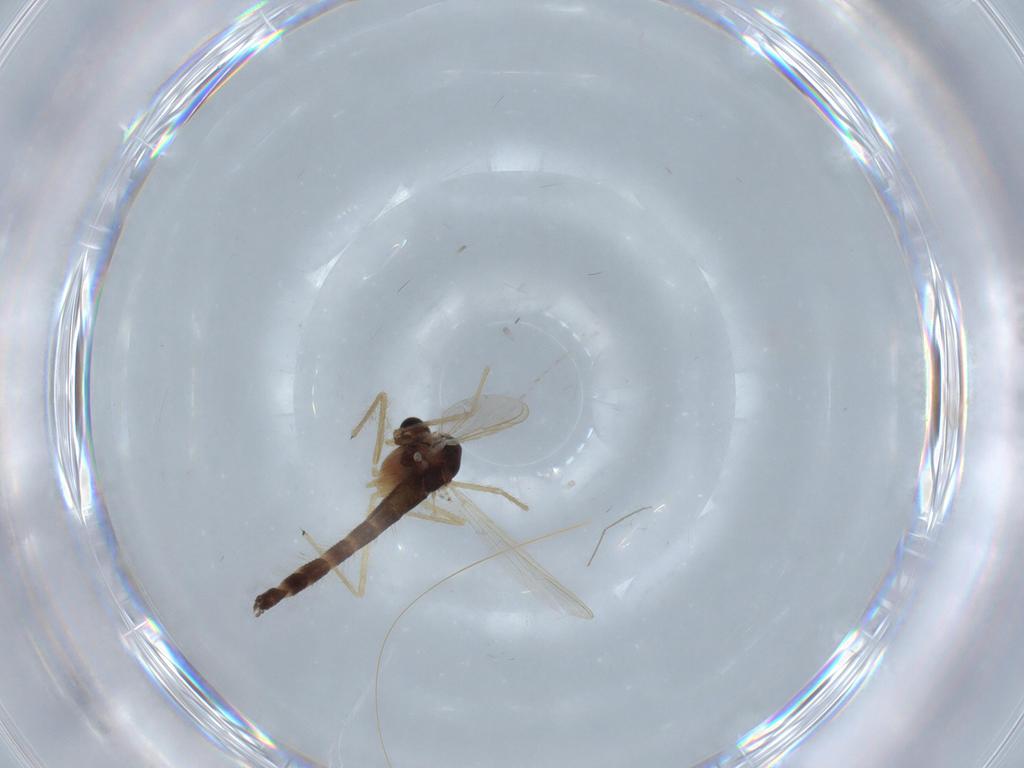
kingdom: Animalia
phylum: Arthropoda
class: Insecta
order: Diptera
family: Chironomidae
